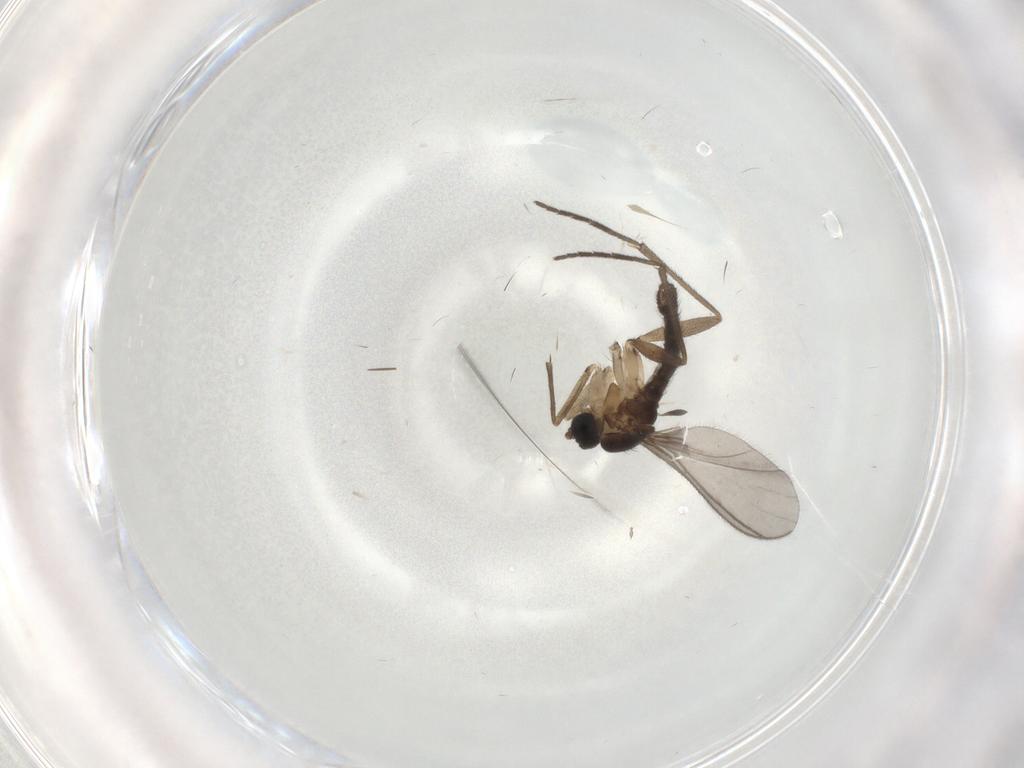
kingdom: Animalia
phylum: Arthropoda
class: Insecta
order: Diptera
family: Sciaridae
